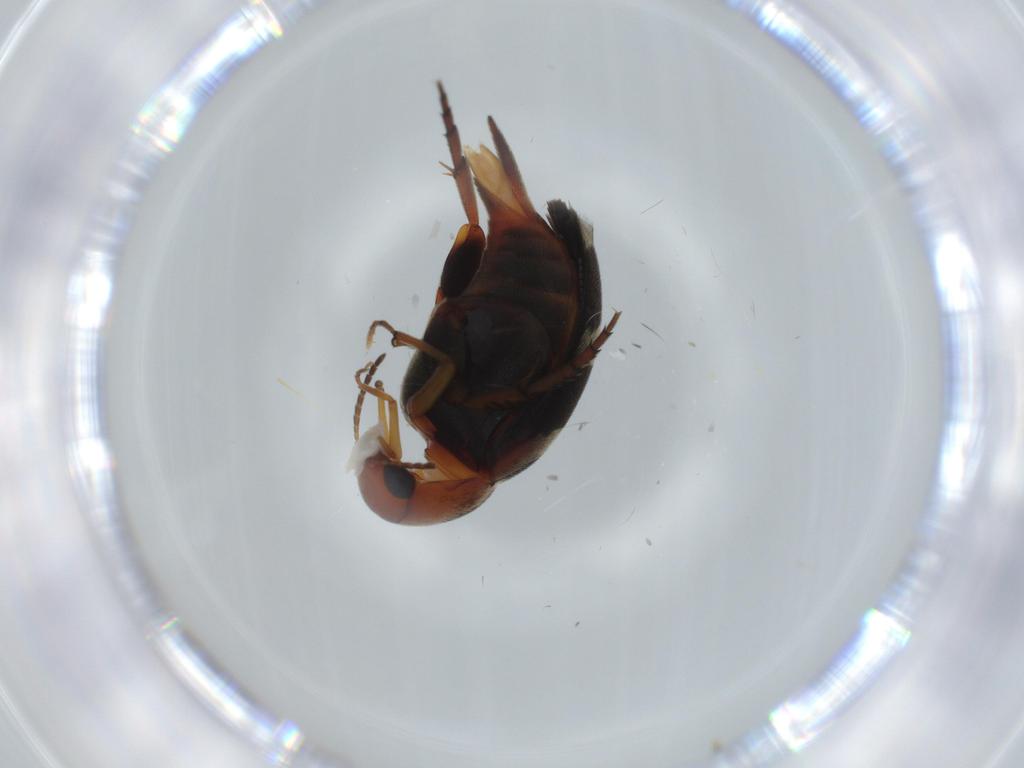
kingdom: Animalia
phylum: Arthropoda
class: Insecta
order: Coleoptera
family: Mordellidae
